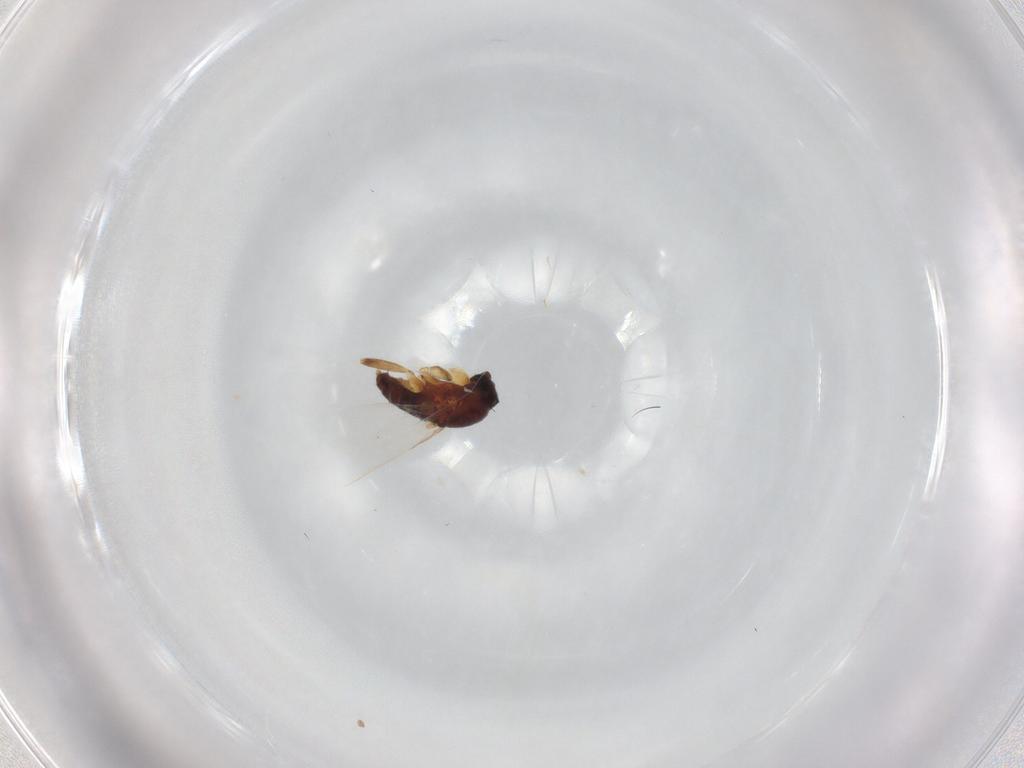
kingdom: Animalia
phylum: Arthropoda
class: Insecta
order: Diptera
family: Phoridae
